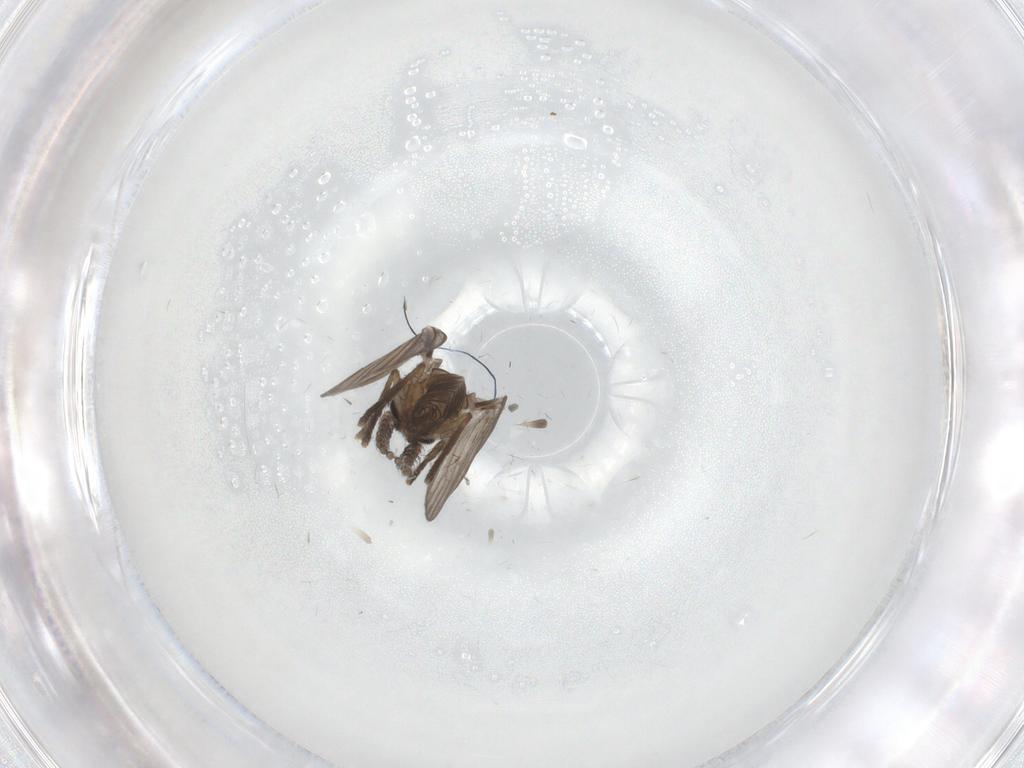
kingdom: Animalia
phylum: Arthropoda
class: Insecta
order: Diptera
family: Psychodidae
